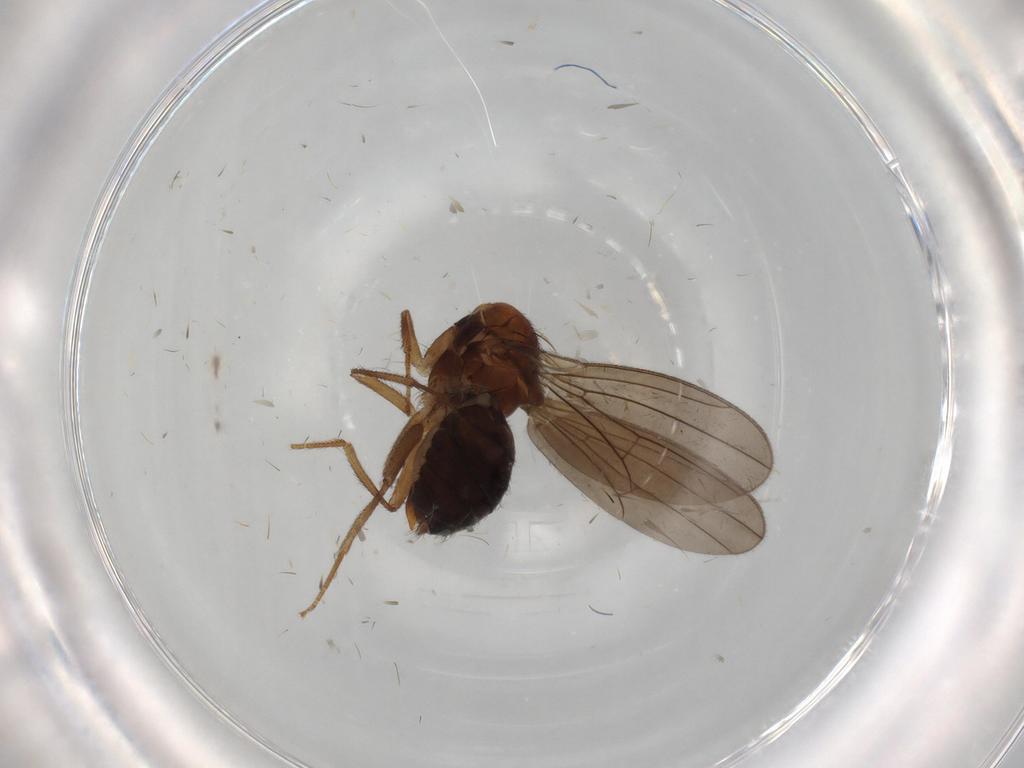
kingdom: Animalia
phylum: Arthropoda
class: Insecta
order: Diptera
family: Drosophilidae
